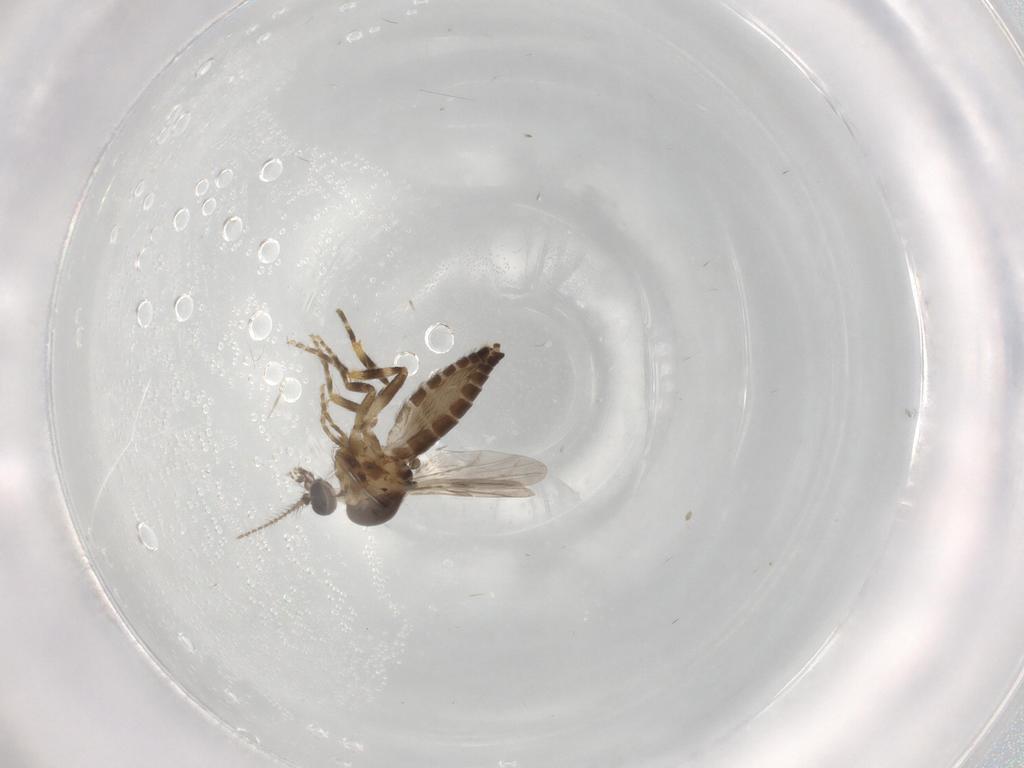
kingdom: Animalia
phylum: Arthropoda
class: Insecta
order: Diptera
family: Ceratopogonidae
